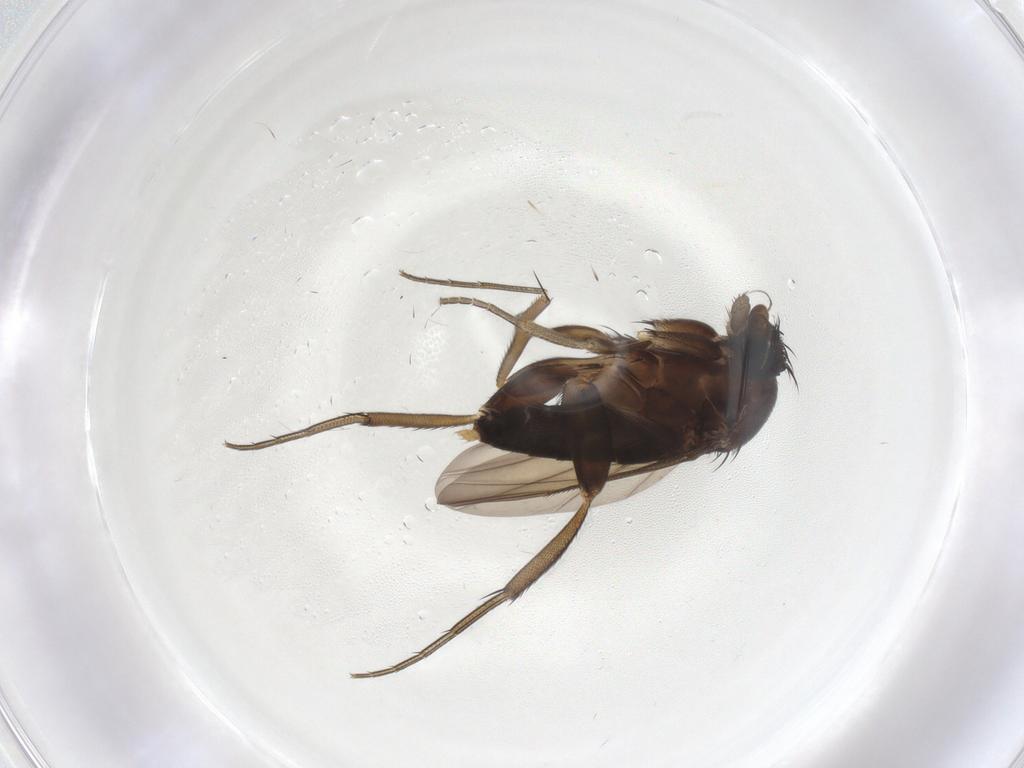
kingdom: Animalia
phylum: Arthropoda
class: Insecta
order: Diptera
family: Phoridae
